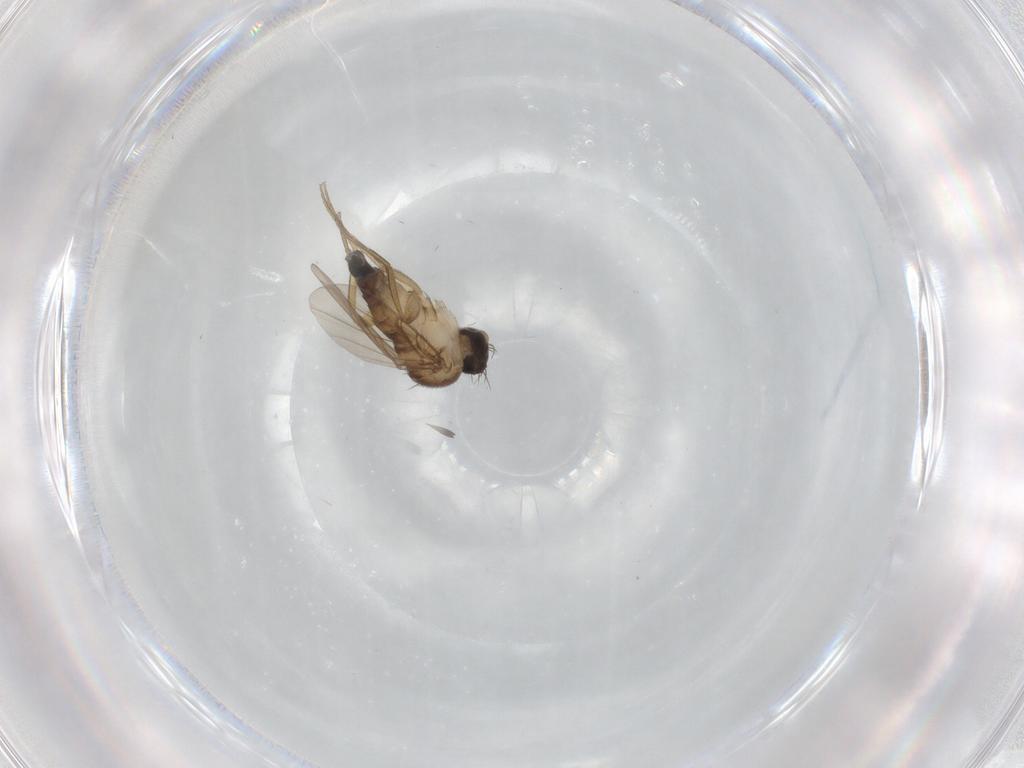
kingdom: Animalia
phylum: Arthropoda
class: Insecta
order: Diptera
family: Phoridae
